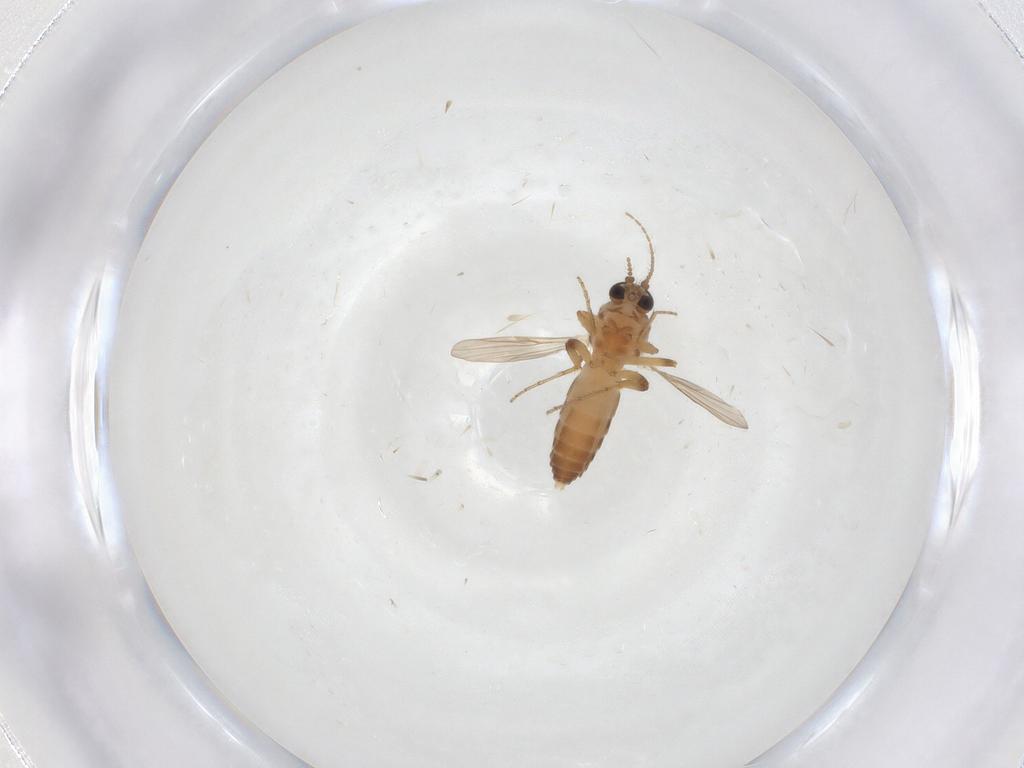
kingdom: Animalia
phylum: Arthropoda
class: Insecta
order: Diptera
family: Ceratopogonidae
